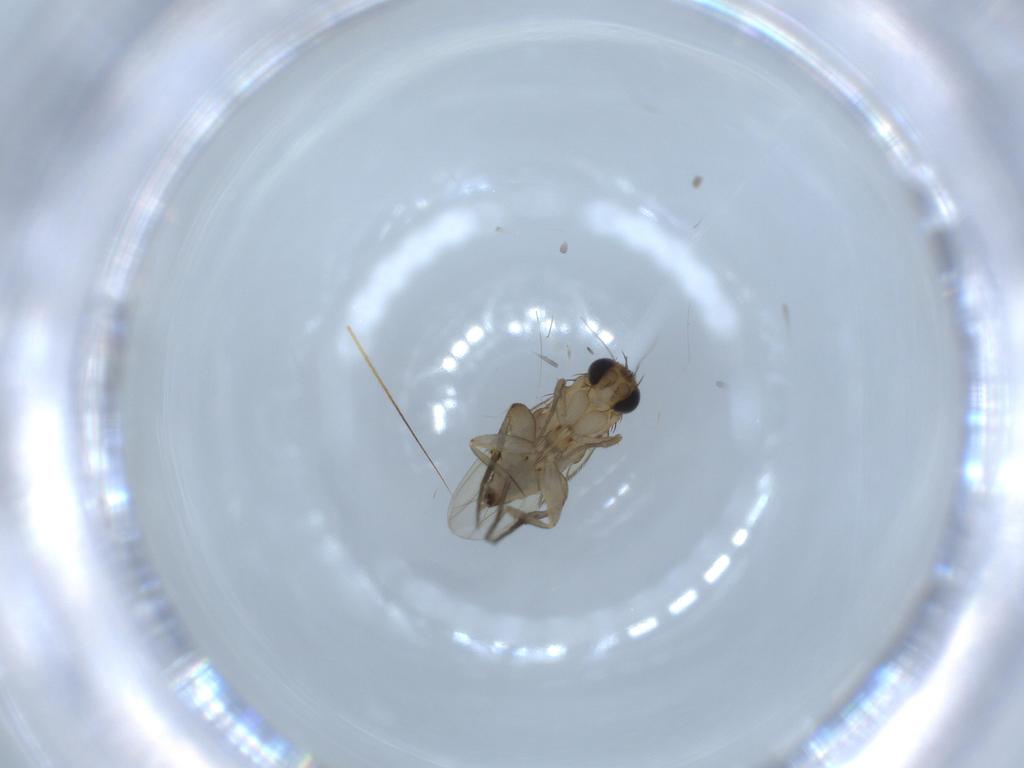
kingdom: Animalia
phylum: Arthropoda
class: Insecta
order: Diptera
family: Phoridae
